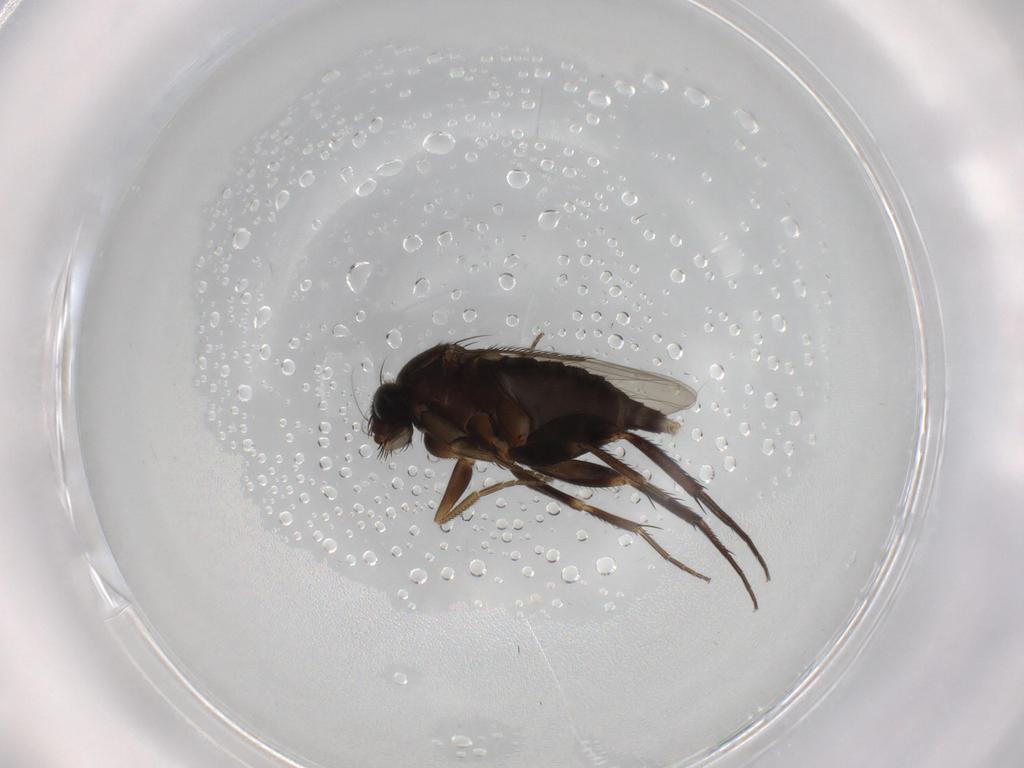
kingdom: Animalia
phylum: Arthropoda
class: Insecta
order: Diptera
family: Phoridae
